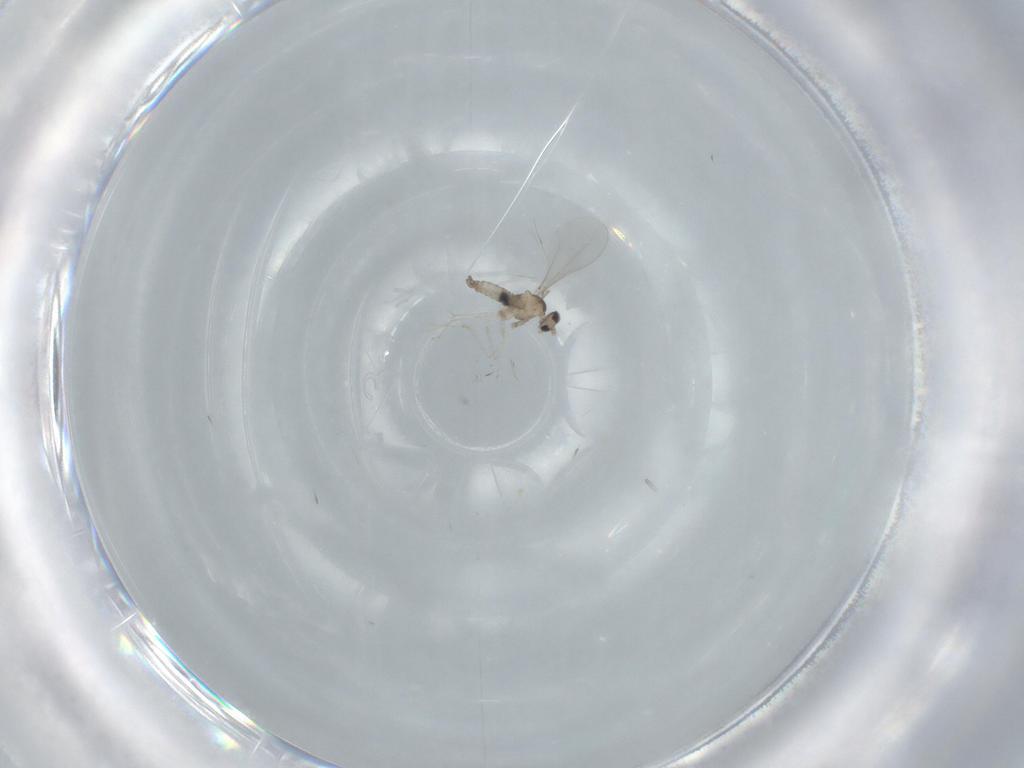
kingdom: Animalia
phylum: Arthropoda
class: Insecta
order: Diptera
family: Cecidomyiidae
